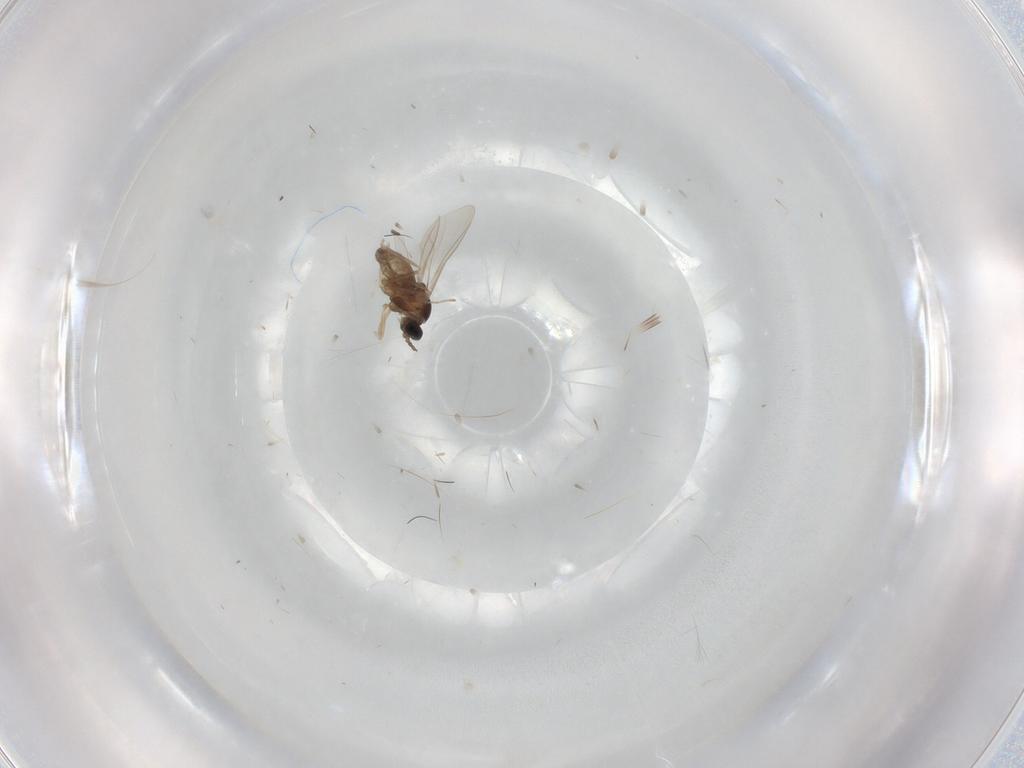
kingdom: Animalia
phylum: Arthropoda
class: Insecta
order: Diptera
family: Cecidomyiidae
